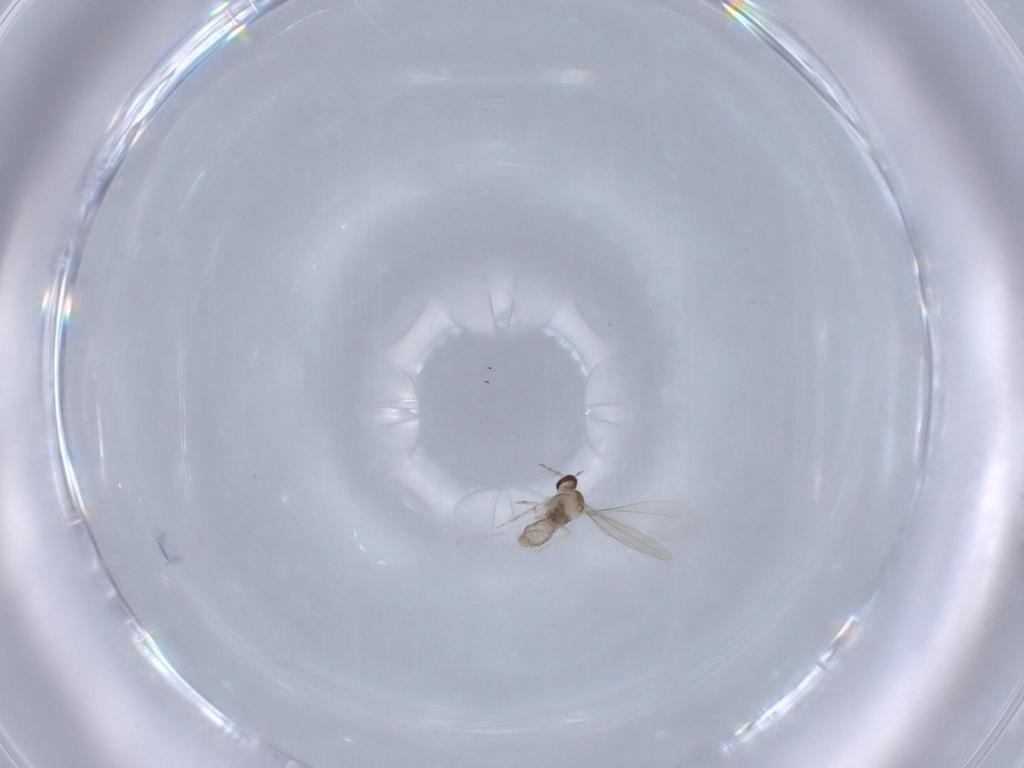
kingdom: Animalia
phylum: Arthropoda
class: Insecta
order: Diptera
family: Cecidomyiidae
